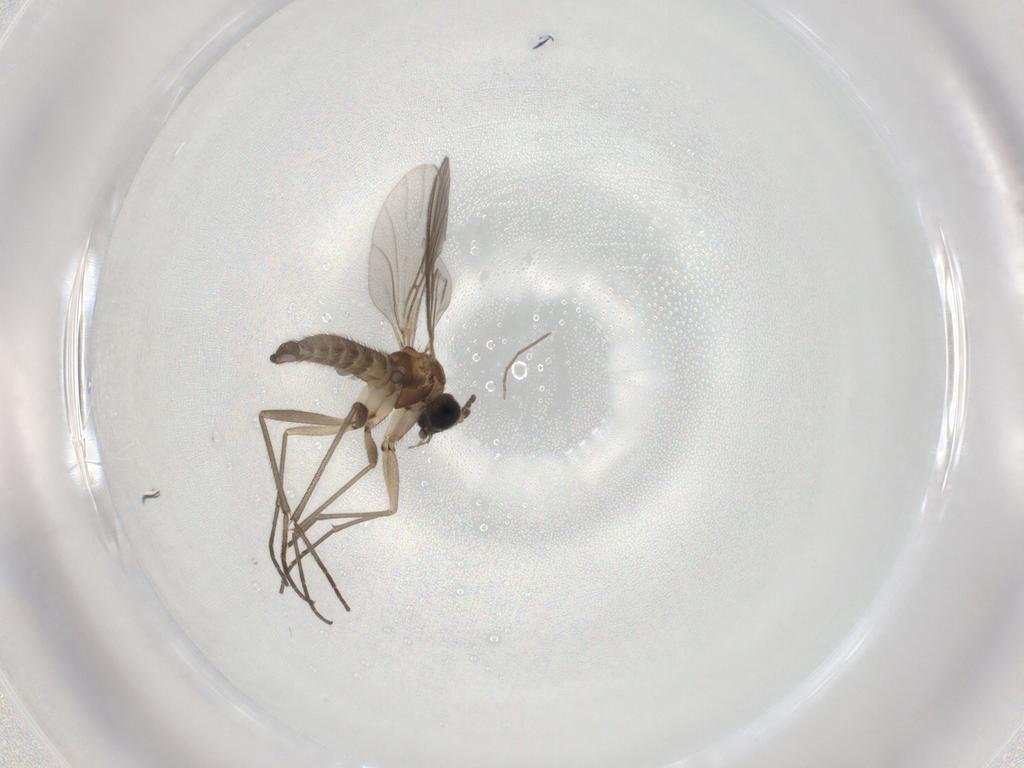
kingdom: Animalia
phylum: Arthropoda
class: Insecta
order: Diptera
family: Sciaridae
